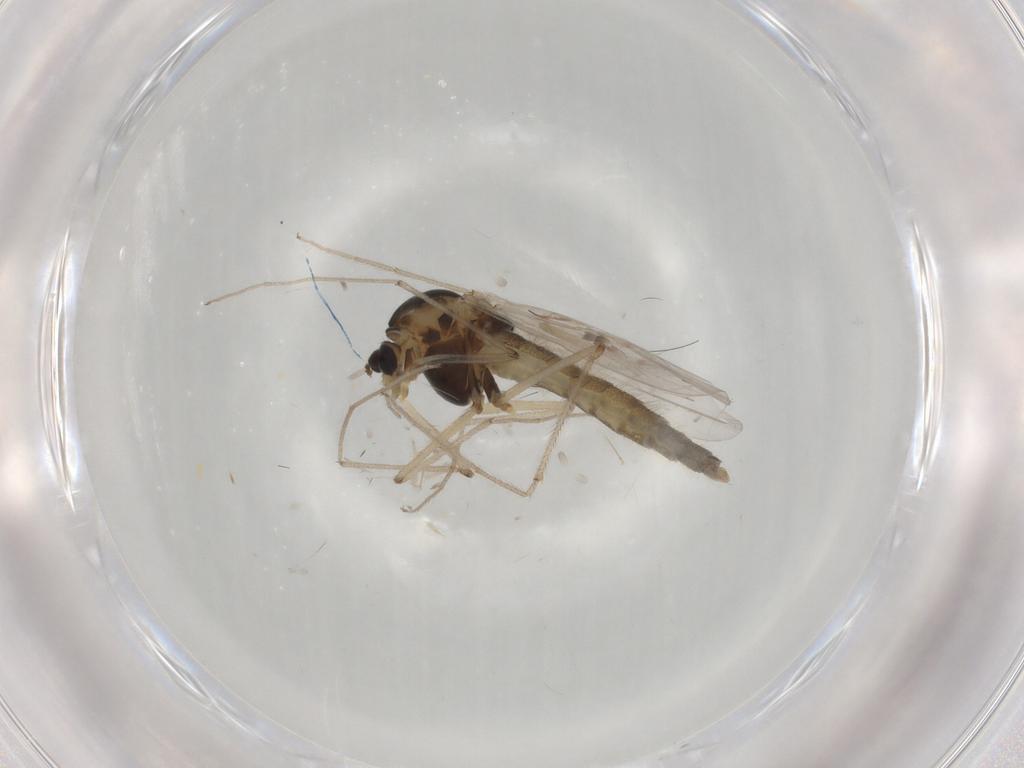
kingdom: Animalia
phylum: Arthropoda
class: Insecta
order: Diptera
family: Chironomidae
